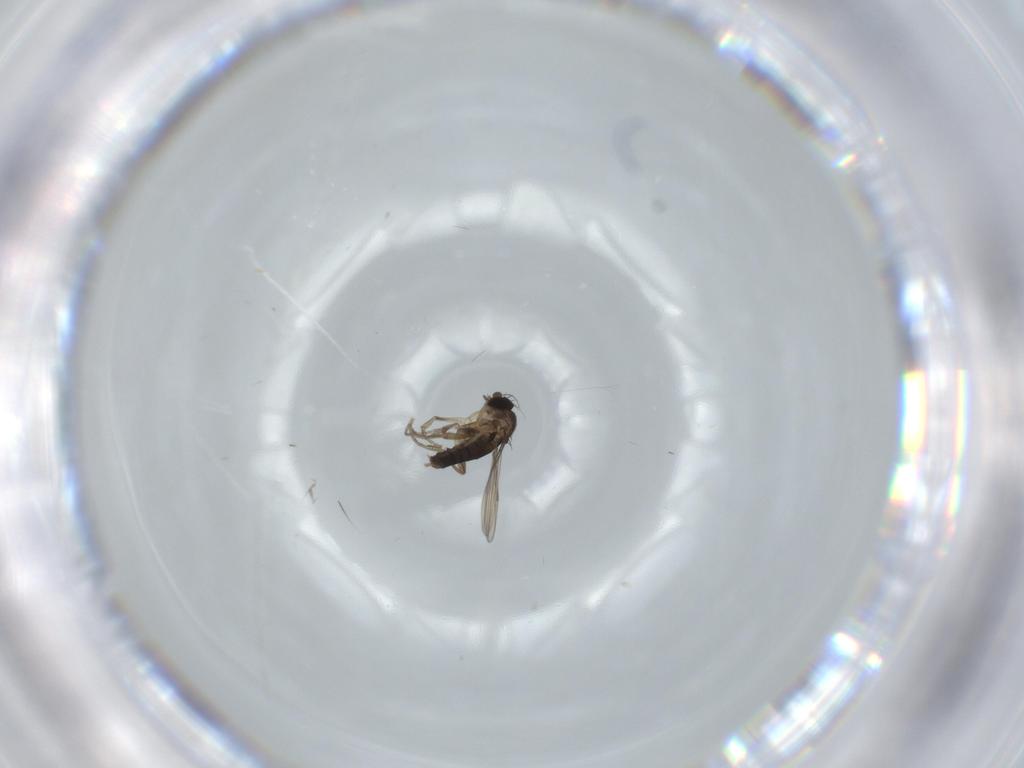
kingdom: Animalia
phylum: Arthropoda
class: Insecta
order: Diptera
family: Phoridae
